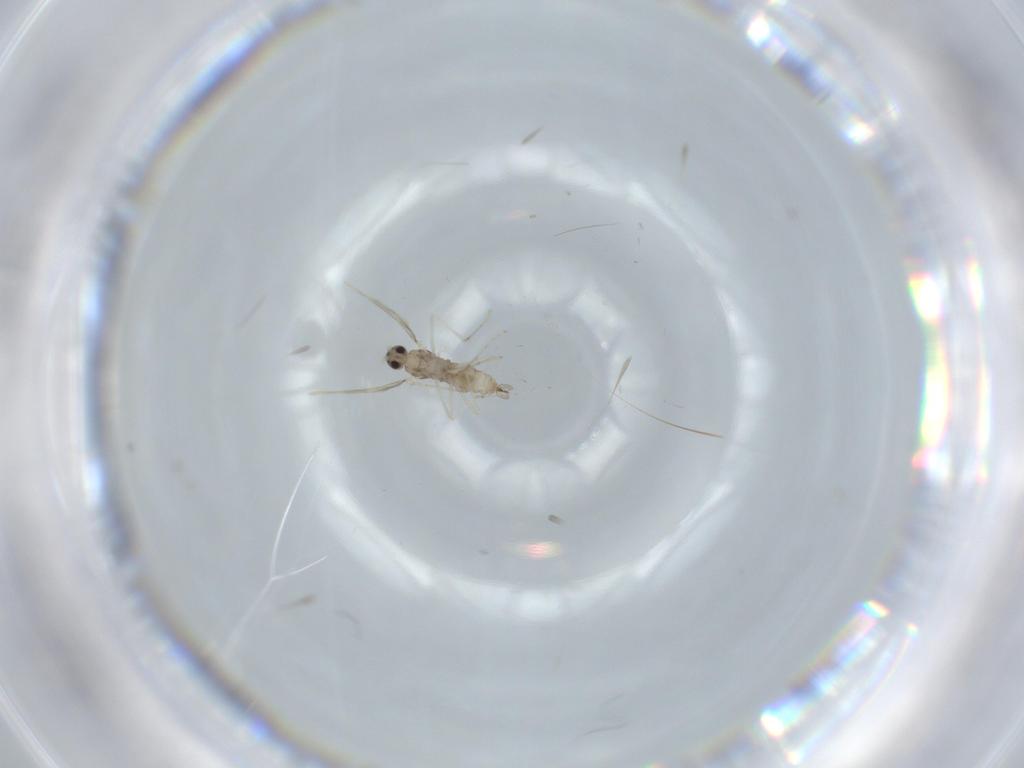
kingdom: Animalia
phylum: Arthropoda
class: Insecta
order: Diptera
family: Cecidomyiidae
